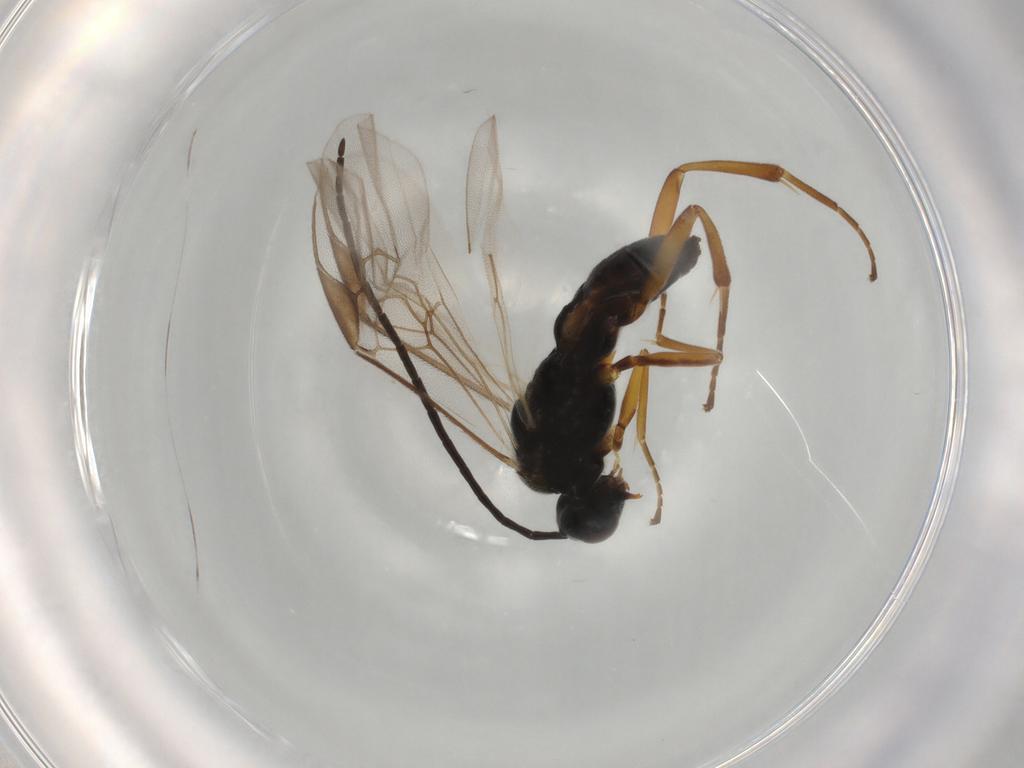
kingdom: Animalia
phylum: Arthropoda
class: Insecta
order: Hymenoptera
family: Braconidae
